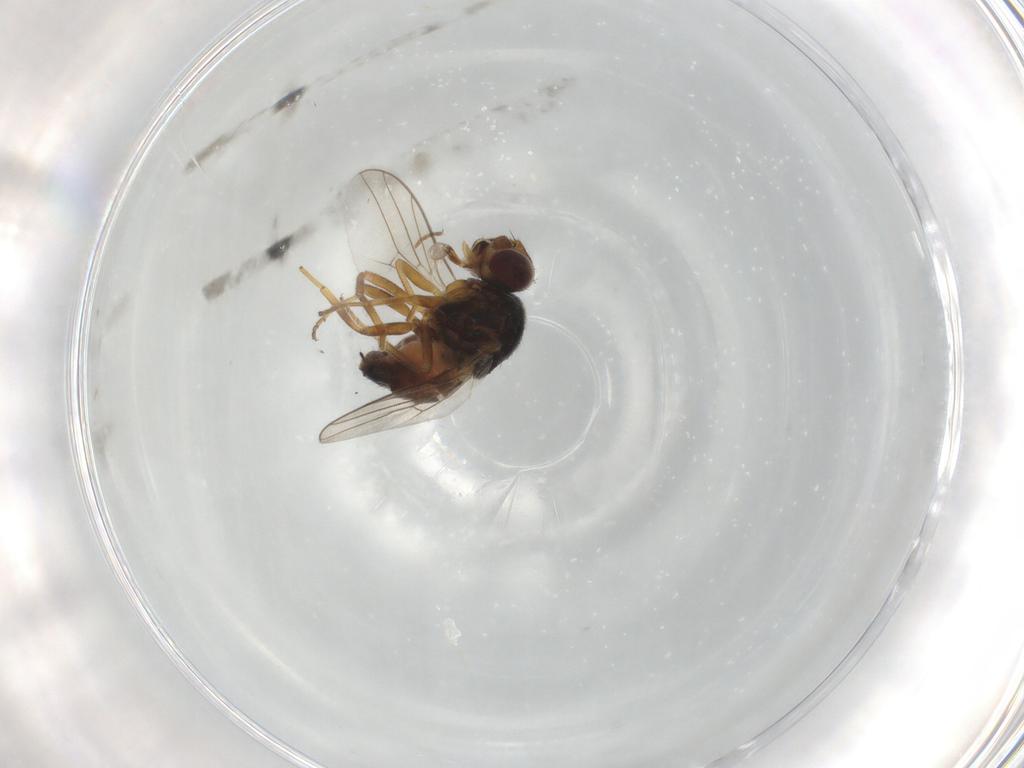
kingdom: Animalia
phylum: Arthropoda
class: Insecta
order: Diptera
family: Chloropidae
